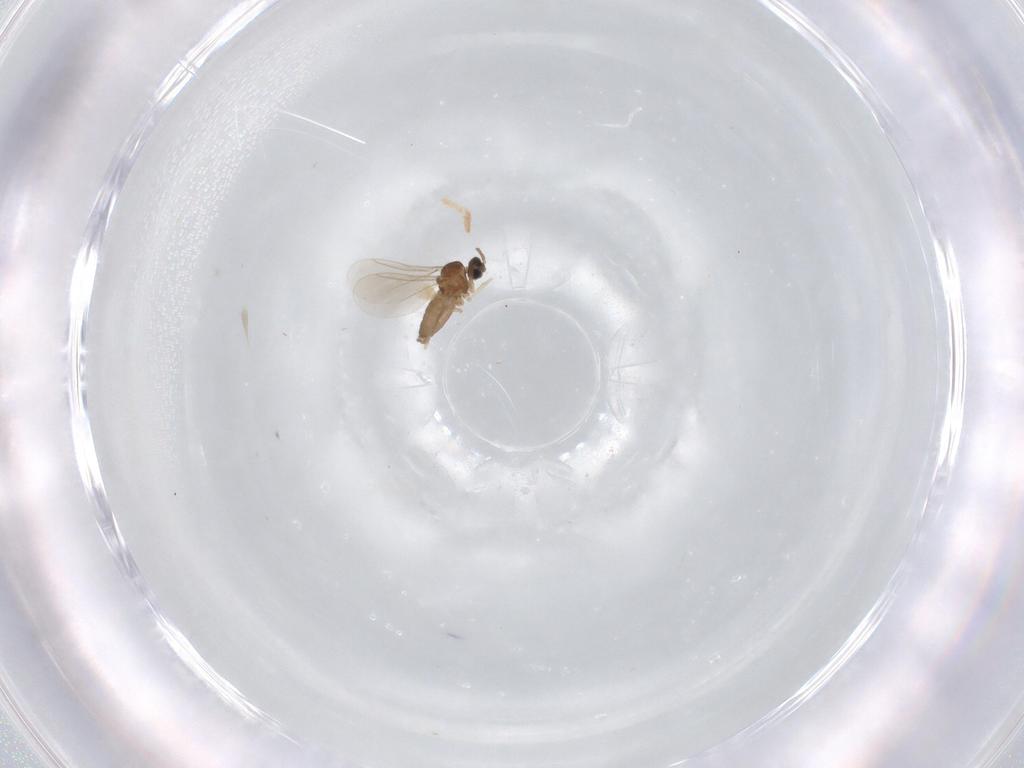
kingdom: Animalia
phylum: Arthropoda
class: Insecta
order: Diptera
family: Cecidomyiidae
